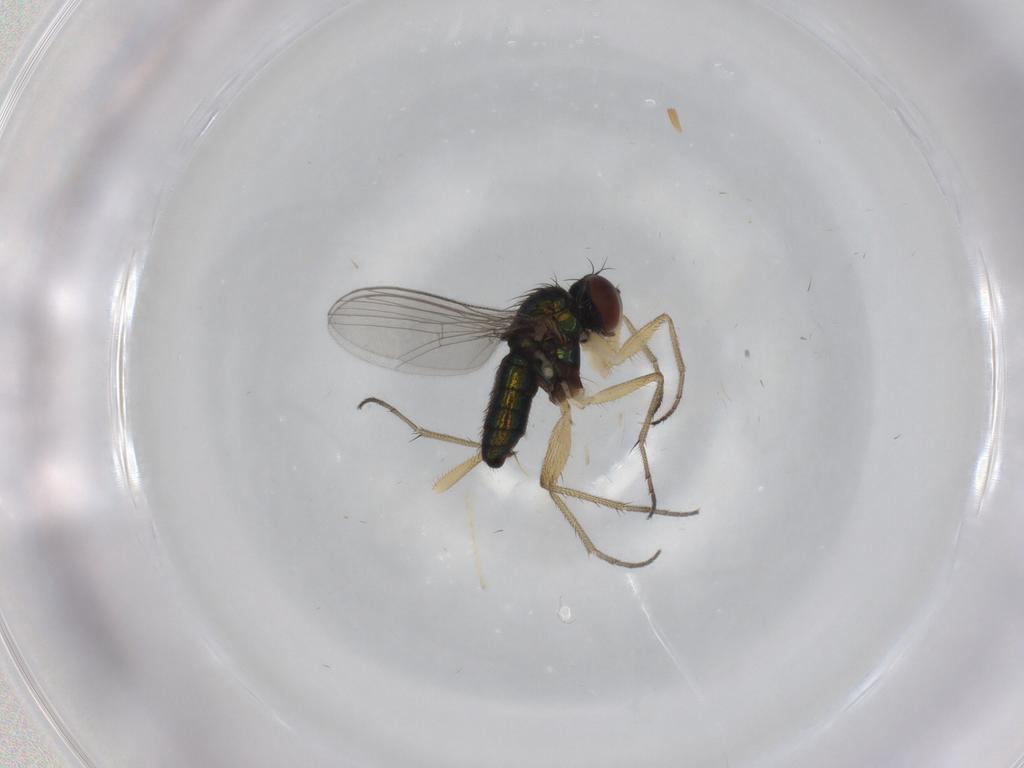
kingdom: Animalia
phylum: Arthropoda
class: Insecta
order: Diptera
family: Dolichopodidae
